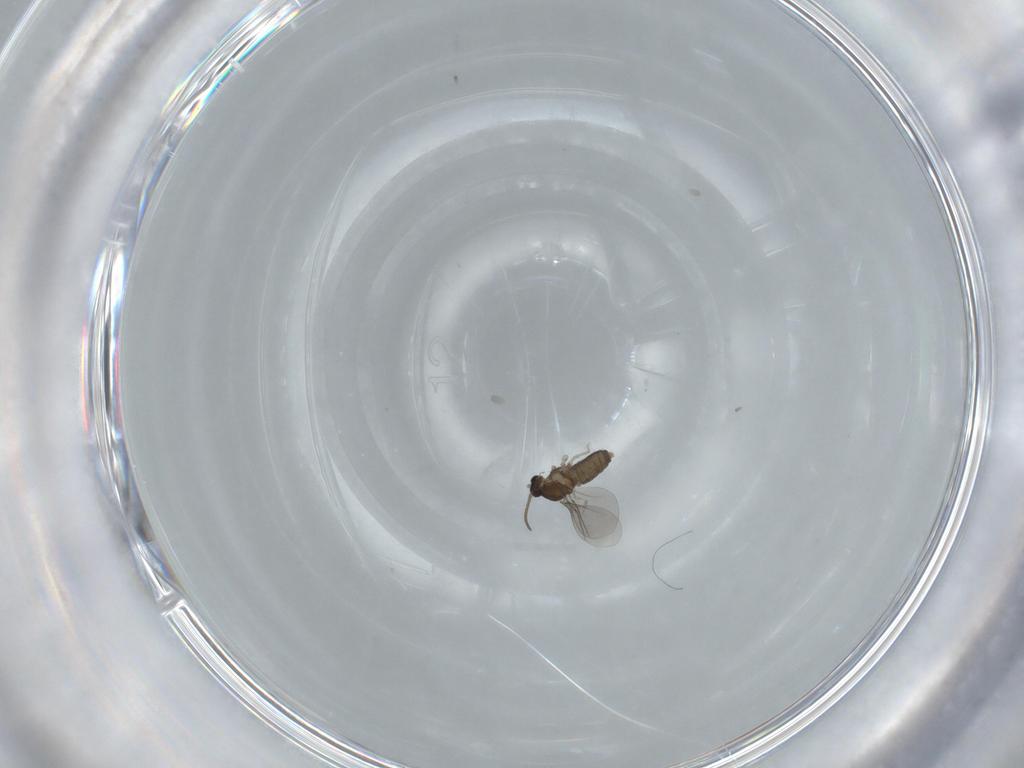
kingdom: Animalia
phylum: Arthropoda
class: Insecta
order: Diptera
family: Cecidomyiidae
